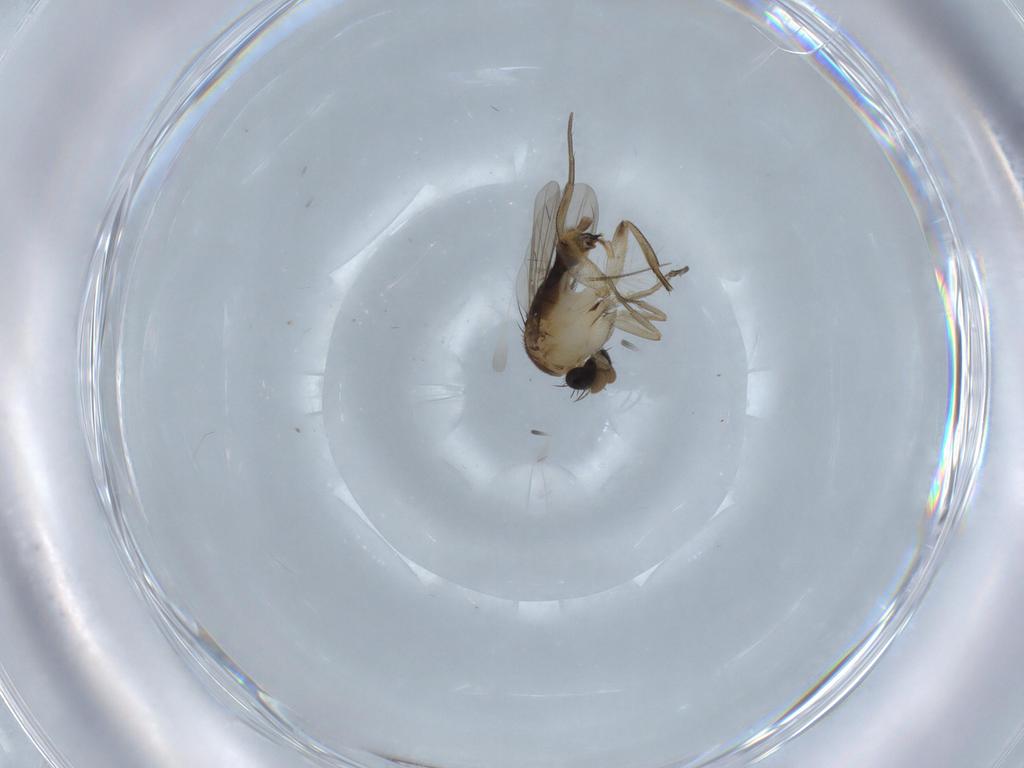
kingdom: Animalia
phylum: Arthropoda
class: Insecta
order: Diptera
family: Phoridae
